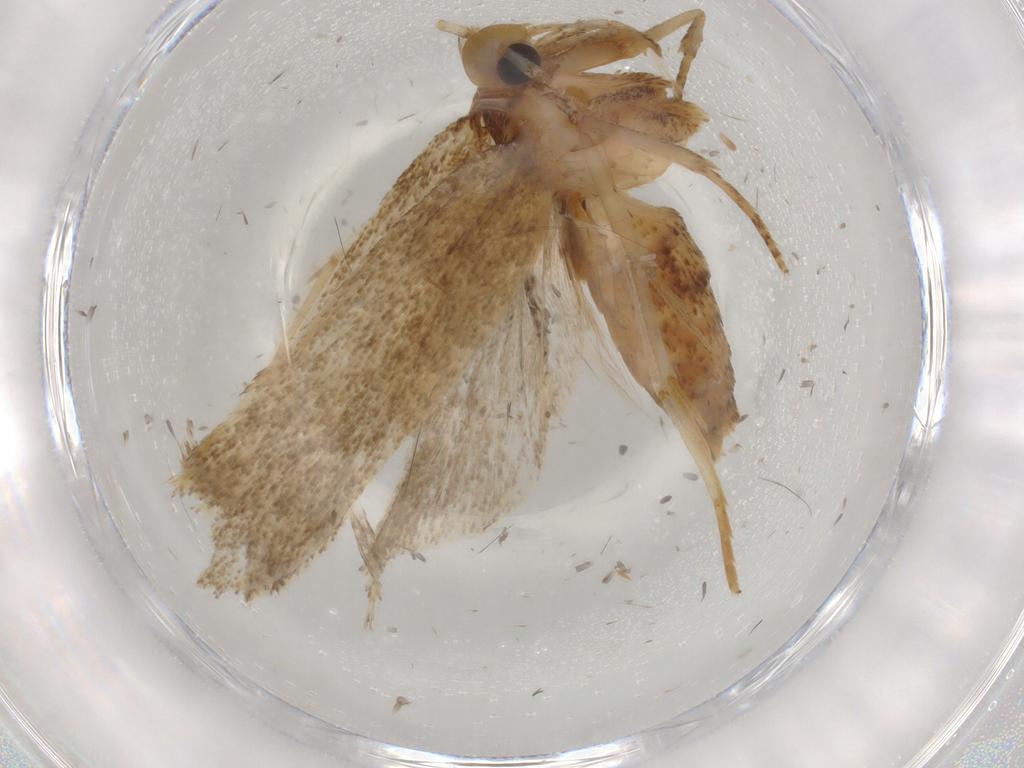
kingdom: Animalia
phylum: Arthropoda
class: Insecta
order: Lepidoptera
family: Autostichidae
